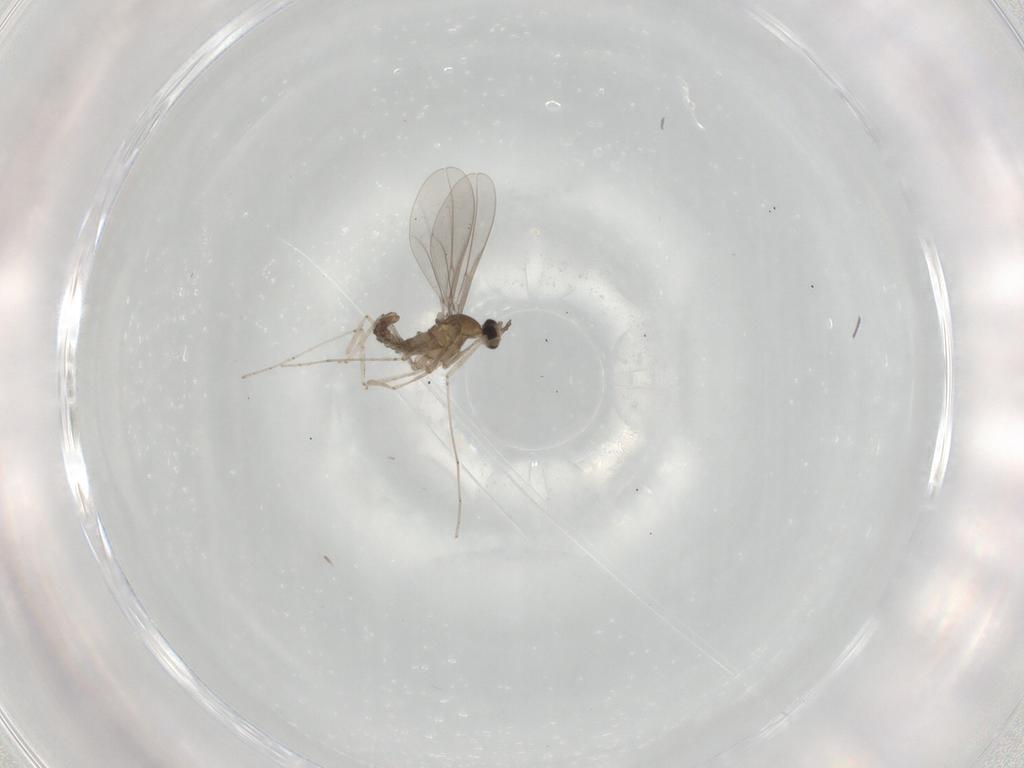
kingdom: Animalia
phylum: Arthropoda
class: Insecta
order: Diptera
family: Cecidomyiidae
